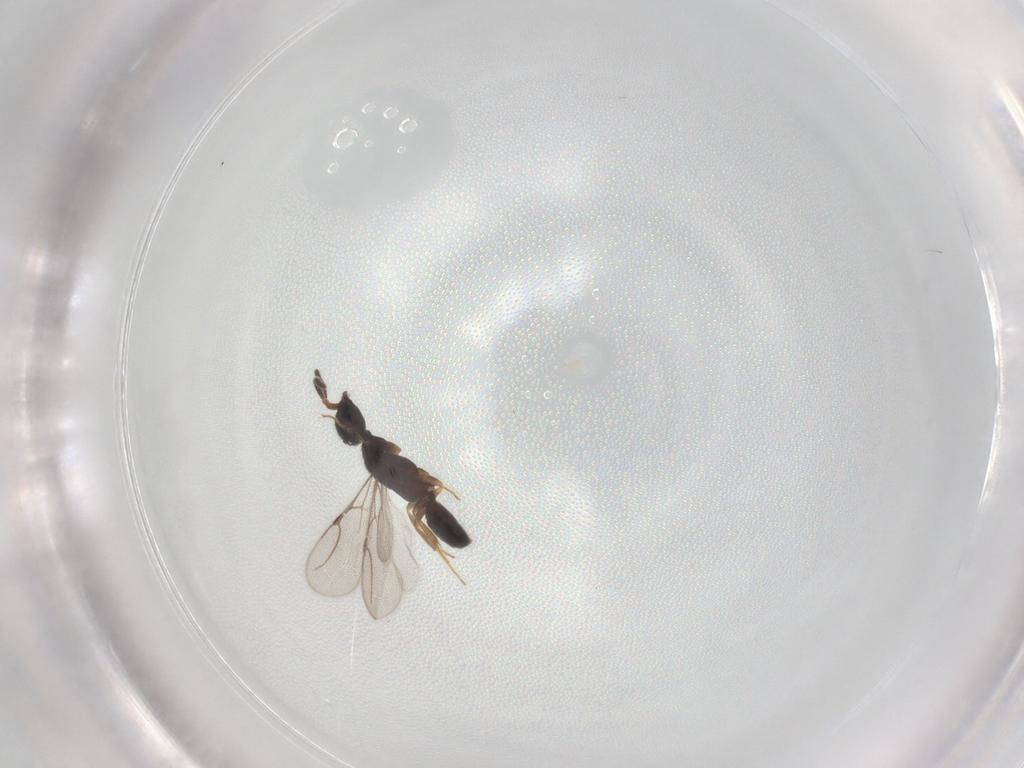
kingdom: Animalia
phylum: Arthropoda
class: Insecta
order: Hymenoptera
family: Bethylidae
